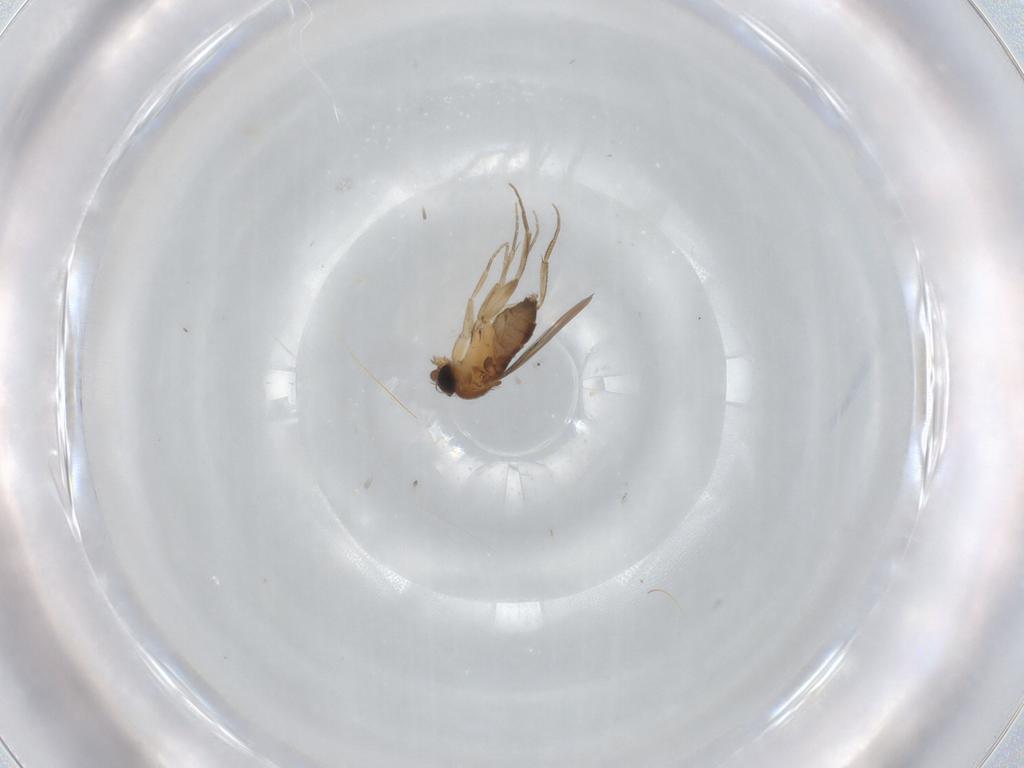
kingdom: Animalia
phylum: Arthropoda
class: Insecta
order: Diptera
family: Phoridae
